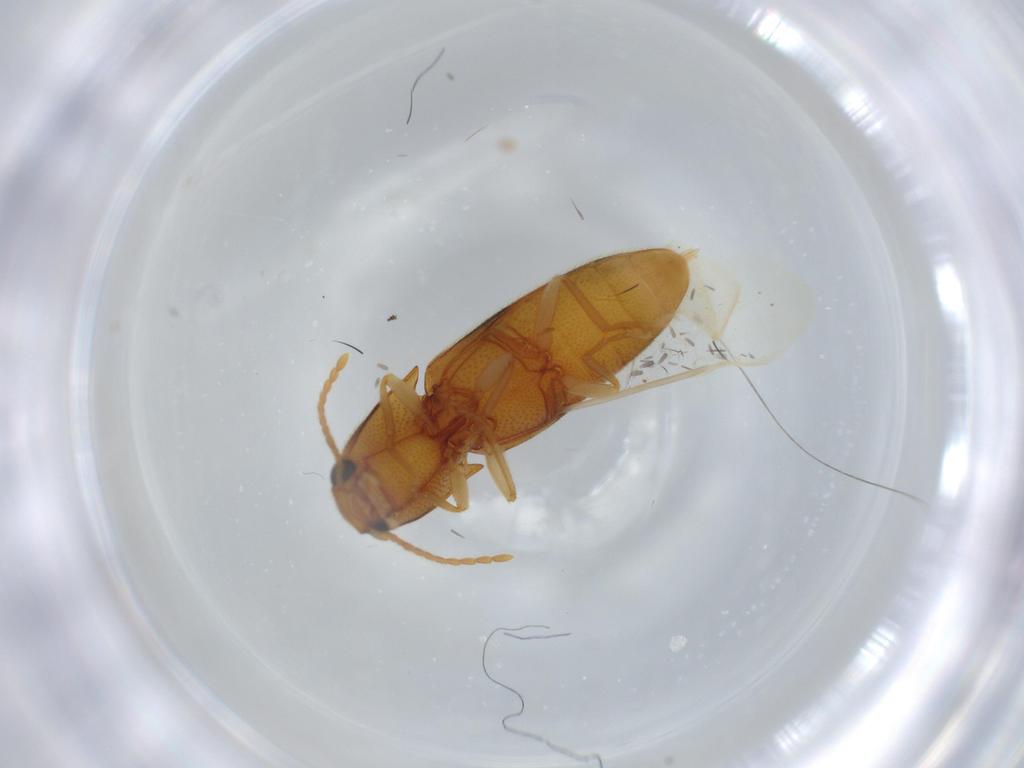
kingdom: Animalia
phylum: Arthropoda
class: Insecta
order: Coleoptera
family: Elateridae
